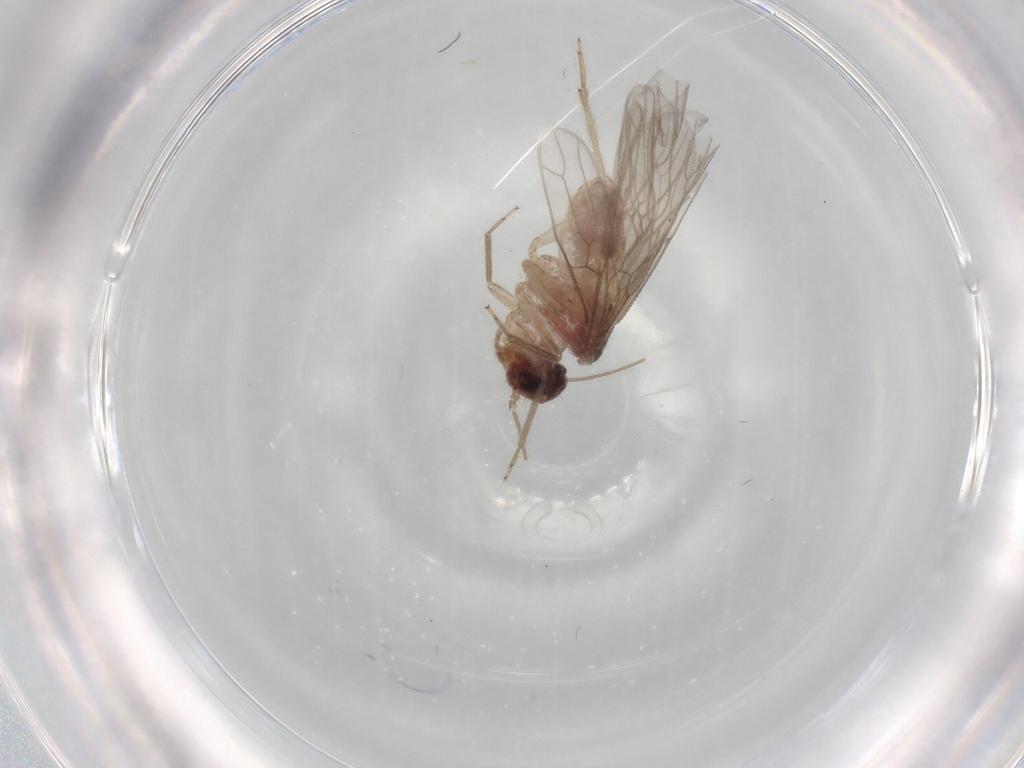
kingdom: Animalia
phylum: Arthropoda
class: Insecta
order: Psocodea
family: Cladiopsocidae
